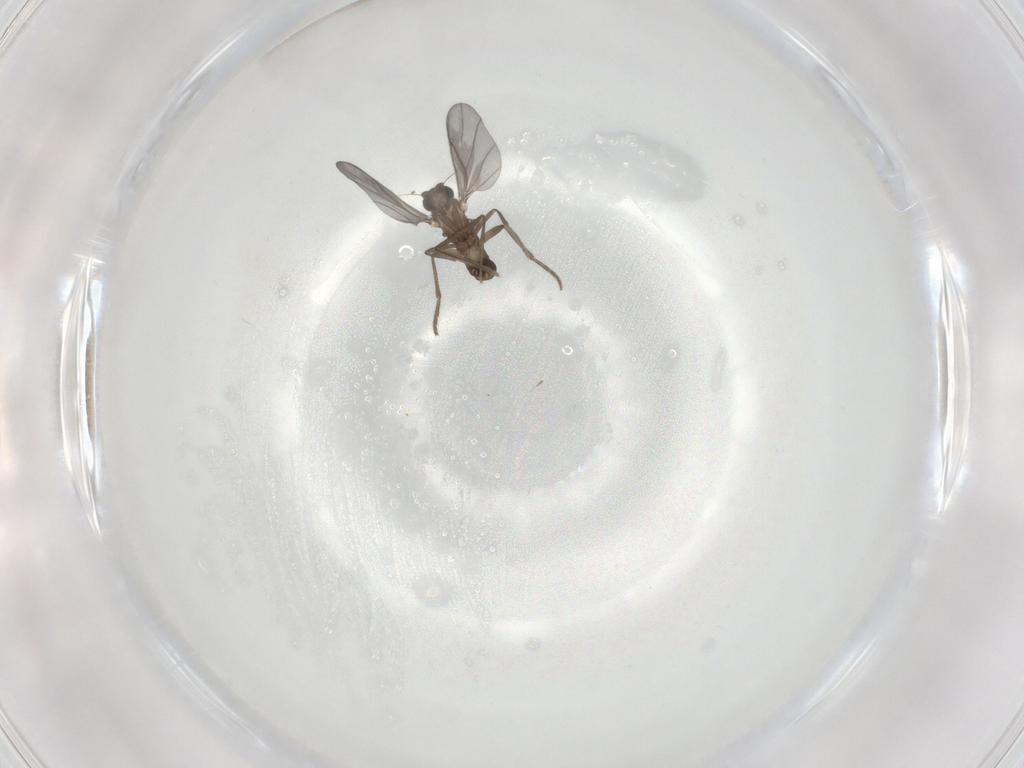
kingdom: Animalia
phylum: Arthropoda
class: Insecta
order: Diptera
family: Phoridae
